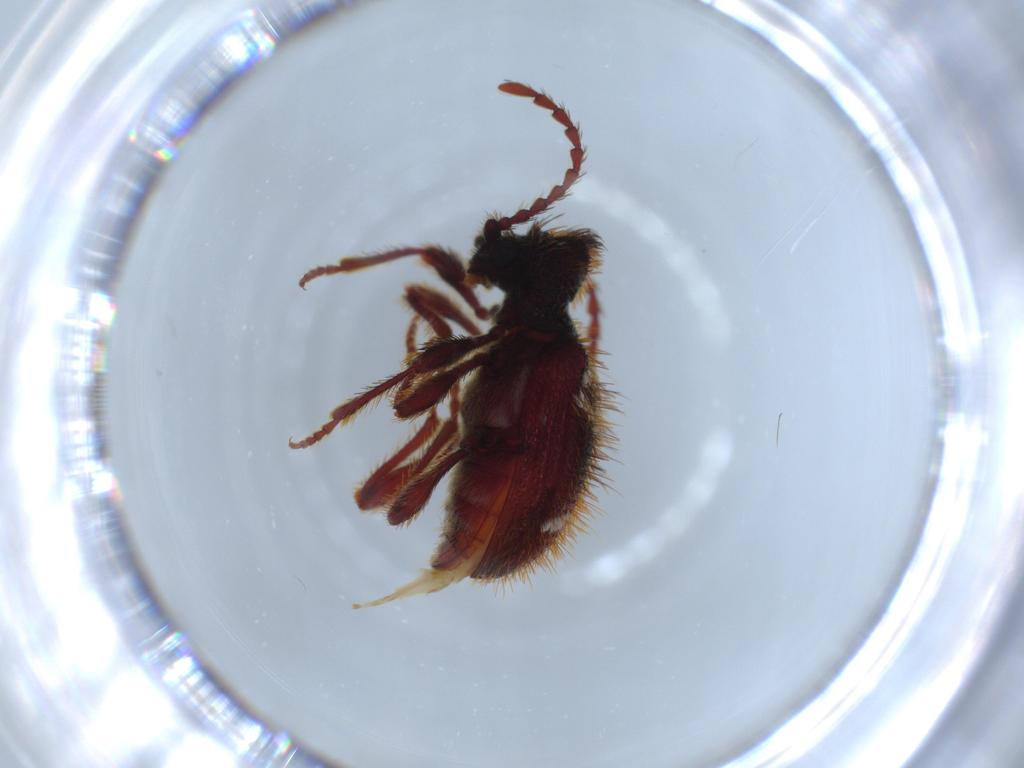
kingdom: Animalia
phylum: Arthropoda
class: Insecta
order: Coleoptera
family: Ptinidae
